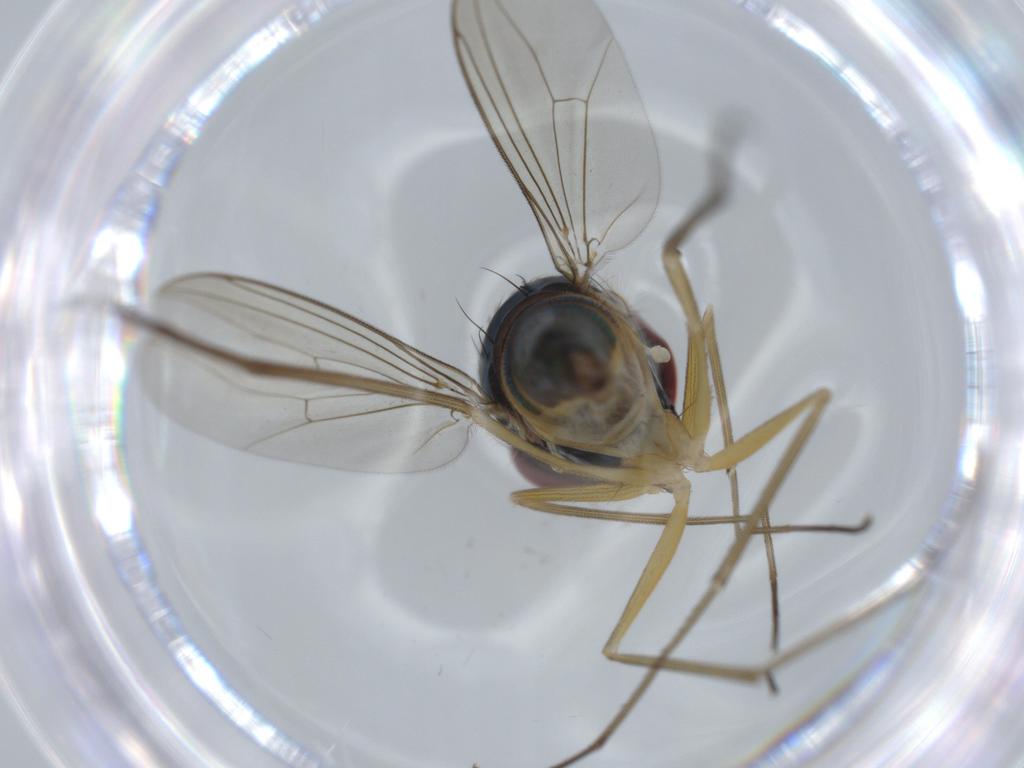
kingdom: Animalia
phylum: Arthropoda
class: Insecta
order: Diptera
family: Dolichopodidae
